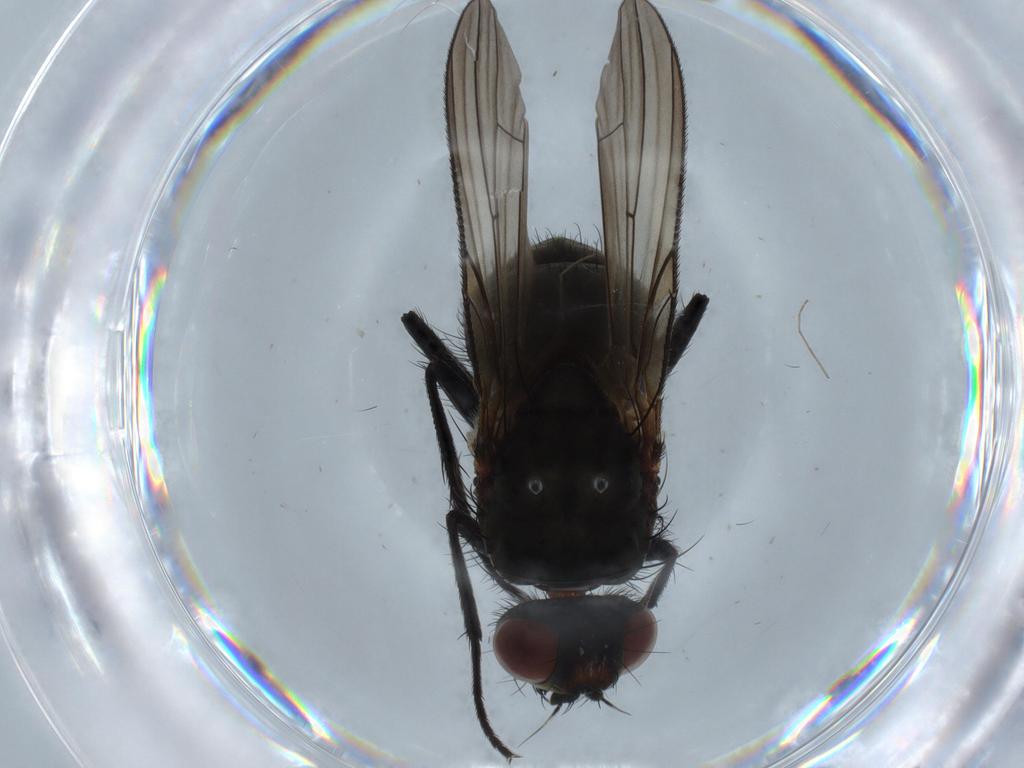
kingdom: Animalia
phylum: Arthropoda
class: Insecta
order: Diptera
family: Anthomyiidae
